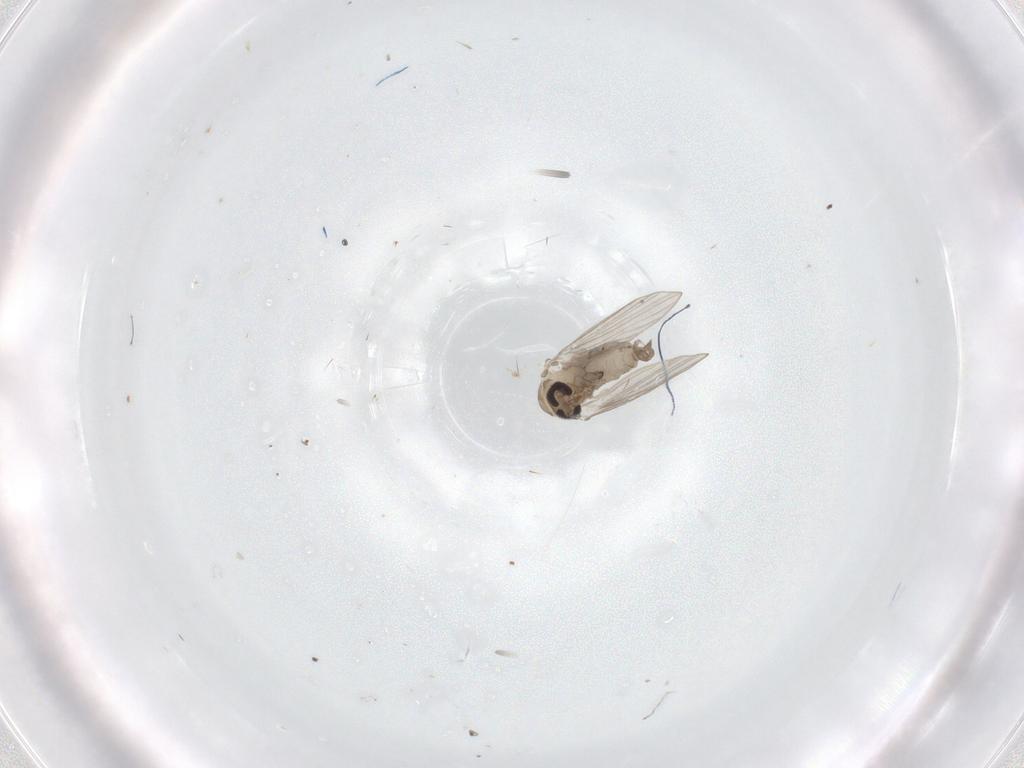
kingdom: Animalia
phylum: Arthropoda
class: Insecta
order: Diptera
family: Psychodidae
